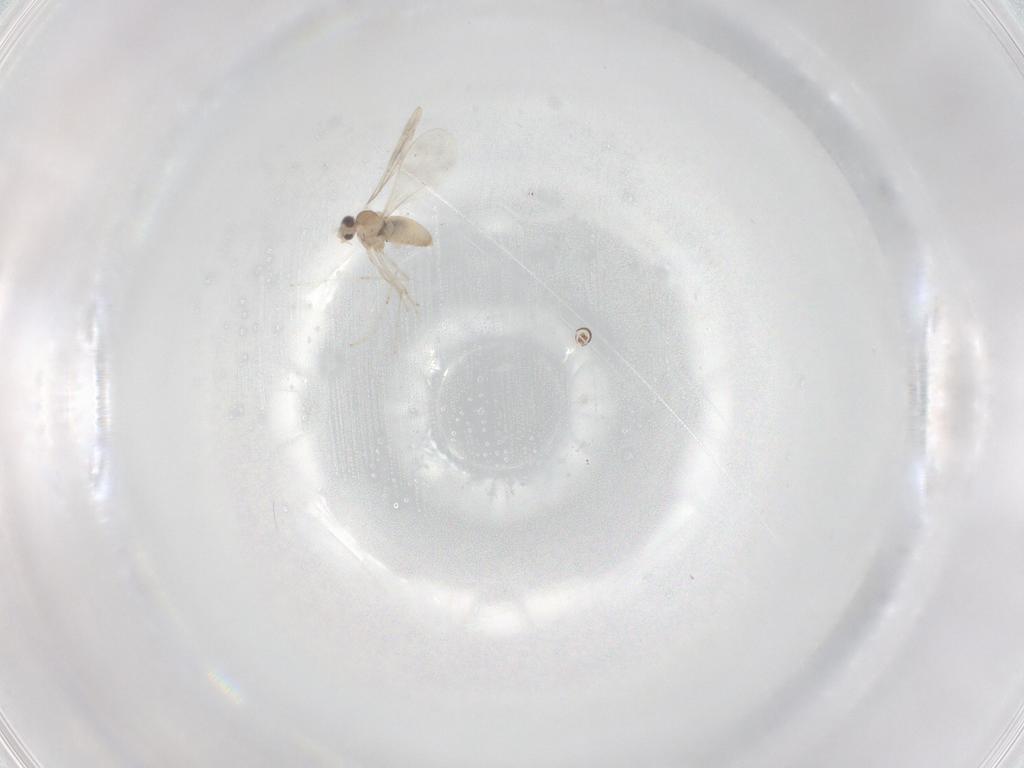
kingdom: Animalia
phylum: Arthropoda
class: Insecta
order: Diptera
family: Cecidomyiidae
